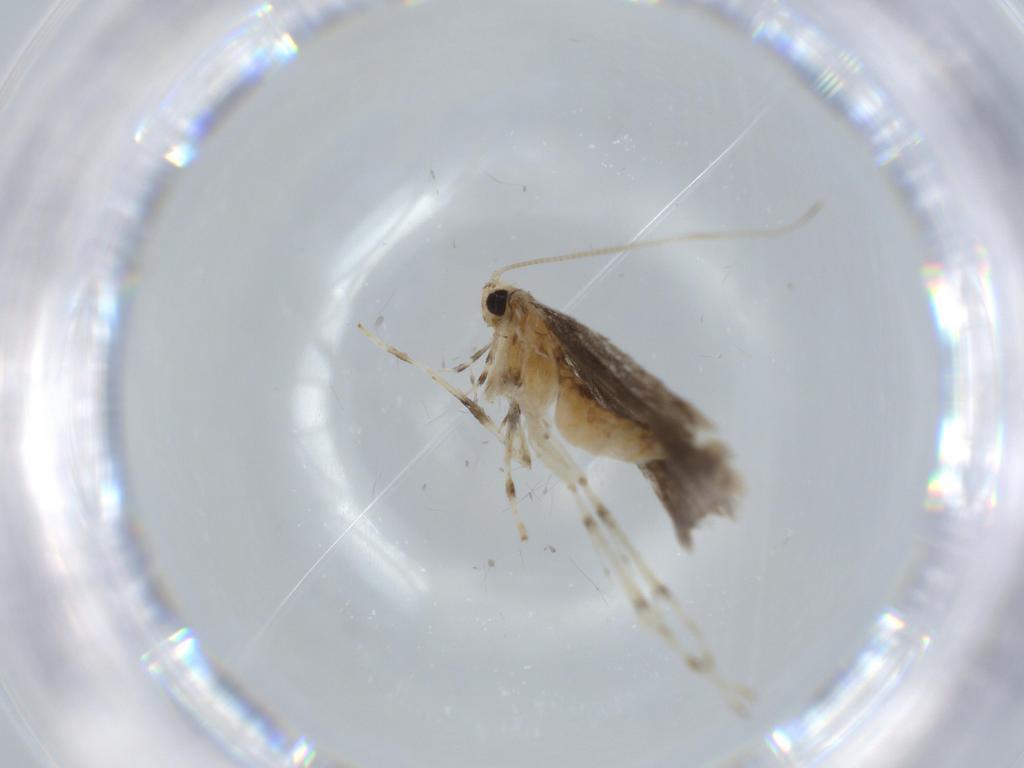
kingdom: Animalia
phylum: Arthropoda
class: Insecta
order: Lepidoptera
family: Gracillariidae
